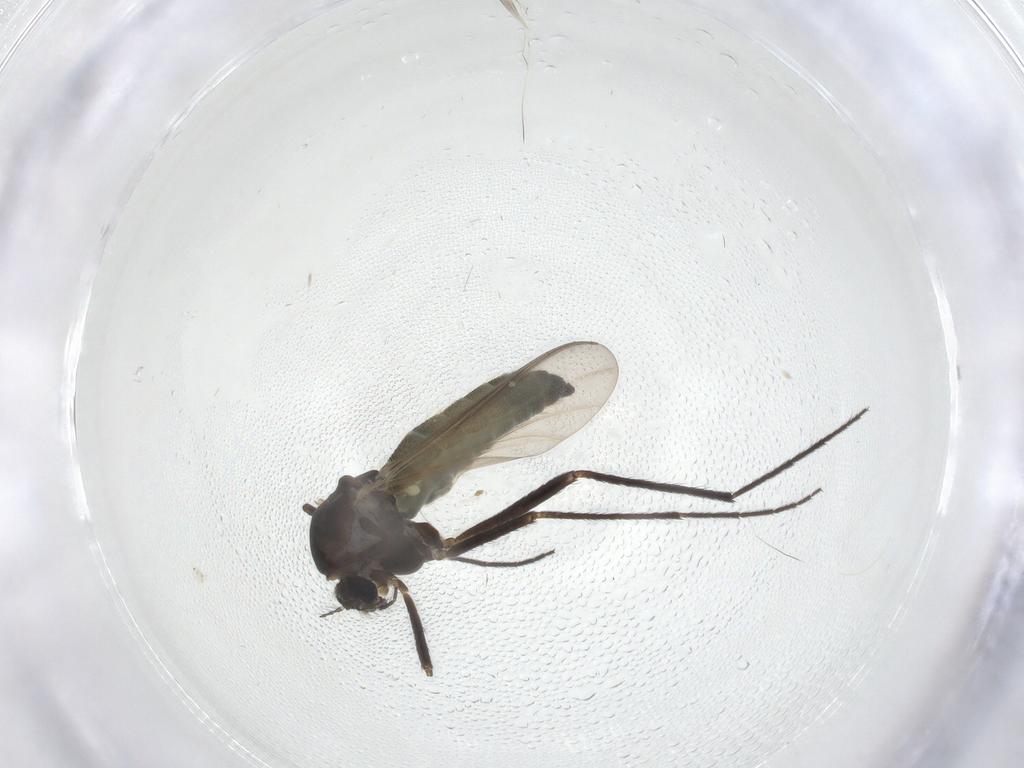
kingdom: Animalia
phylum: Arthropoda
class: Insecta
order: Diptera
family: Chironomidae
